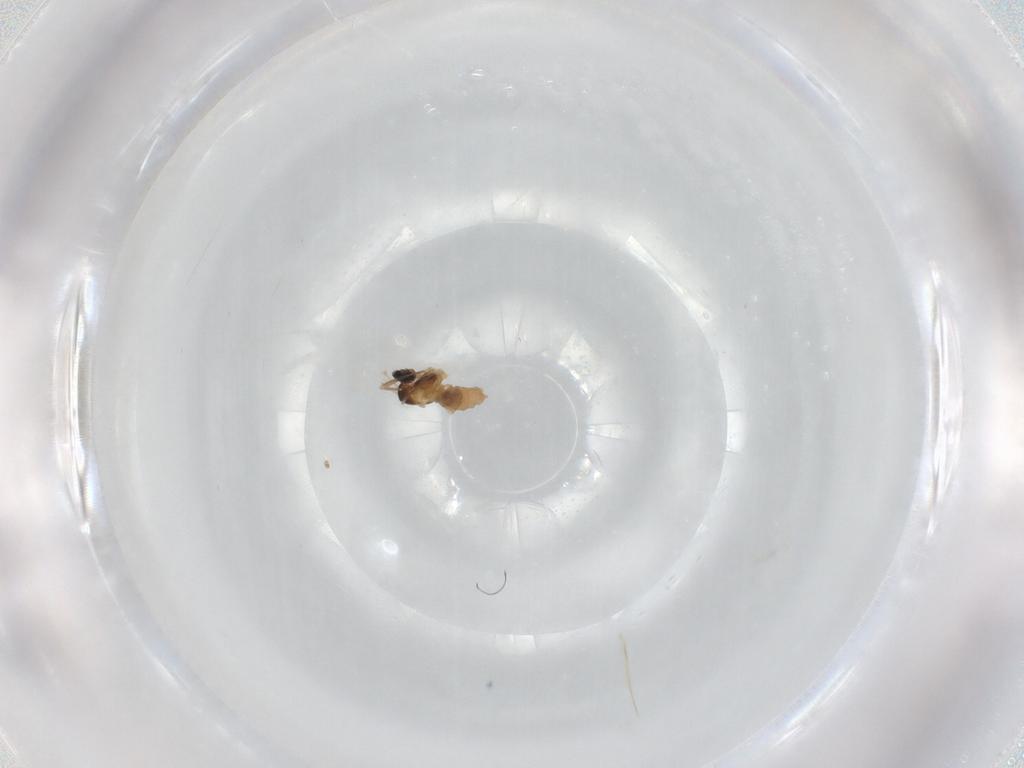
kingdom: Animalia
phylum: Arthropoda
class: Insecta
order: Diptera
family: Cecidomyiidae
